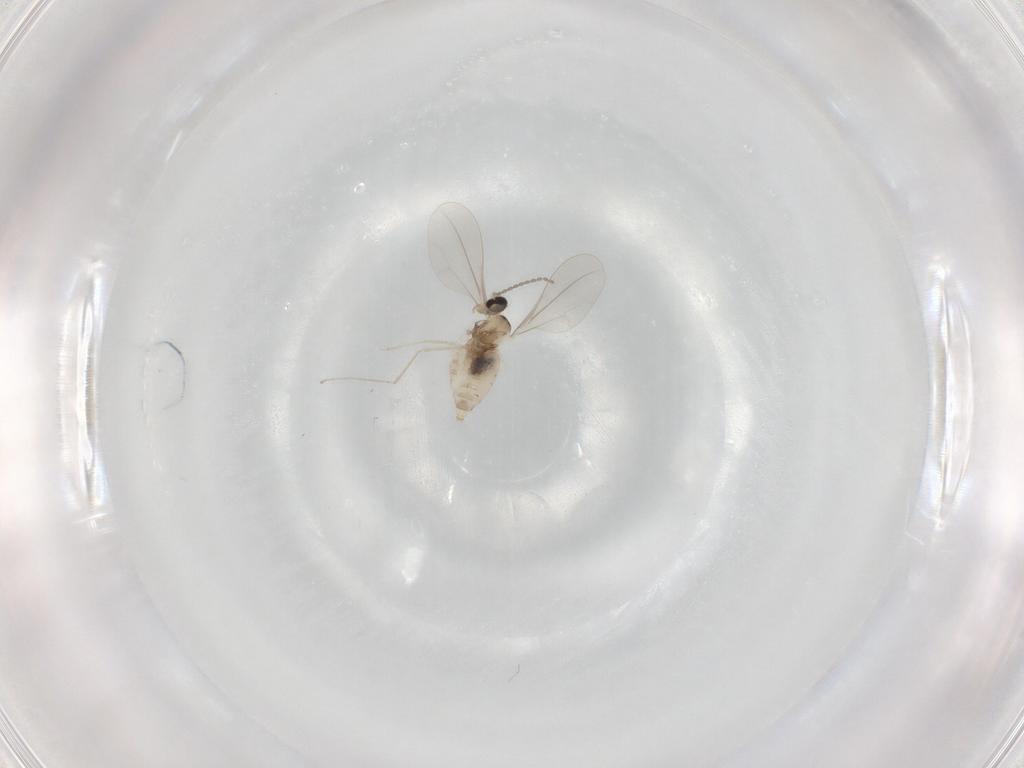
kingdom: Animalia
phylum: Arthropoda
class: Insecta
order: Diptera
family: Cecidomyiidae
